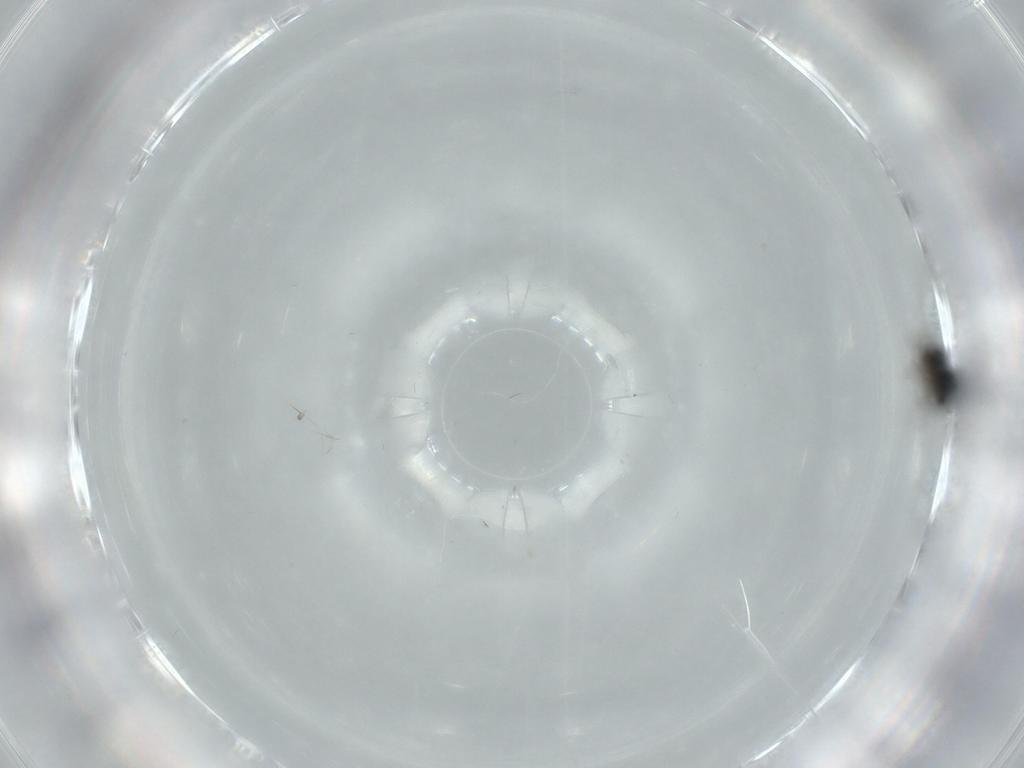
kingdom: Animalia
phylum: Arthropoda
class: Insecta
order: Hymenoptera
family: Ceraphronidae
